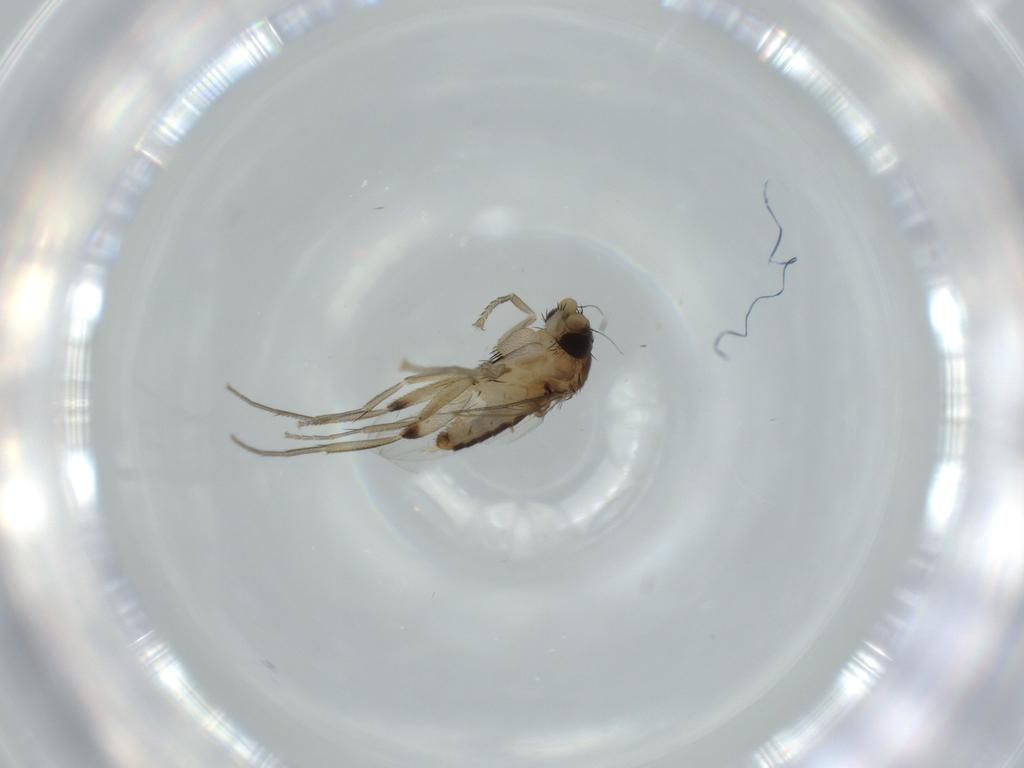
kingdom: Animalia
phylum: Arthropoda
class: Insecta
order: Diptera
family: Phoridae
